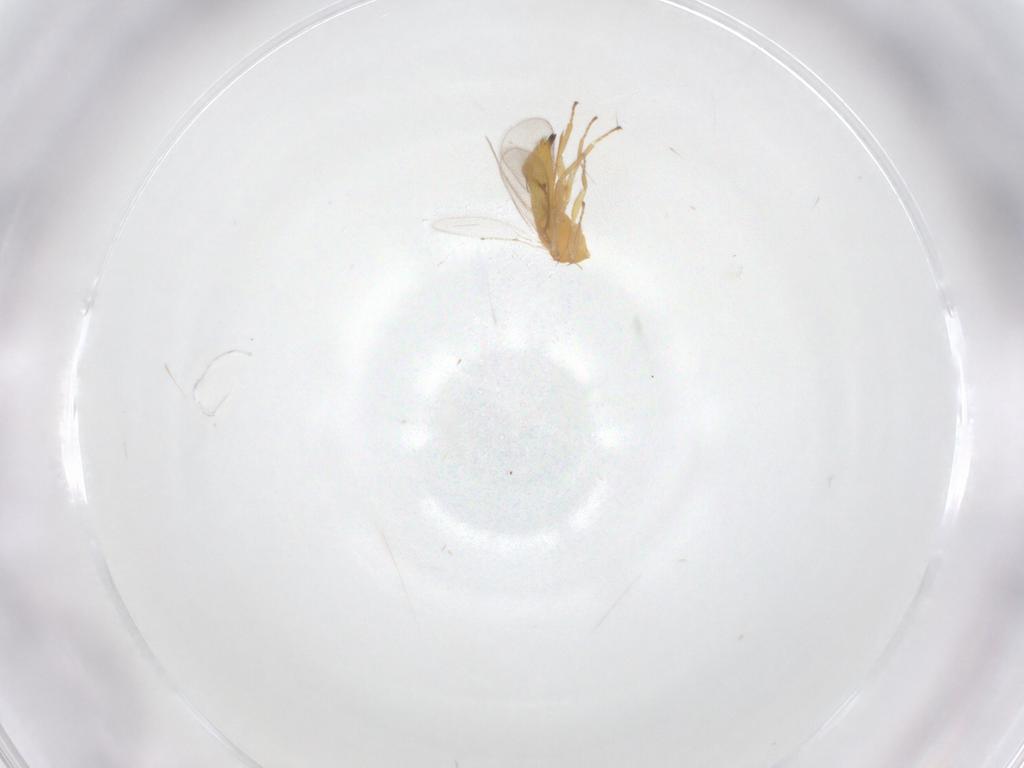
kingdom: Animalia
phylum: Arthropoda
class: Insecta
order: Hymenoptera
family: Eulophidae
